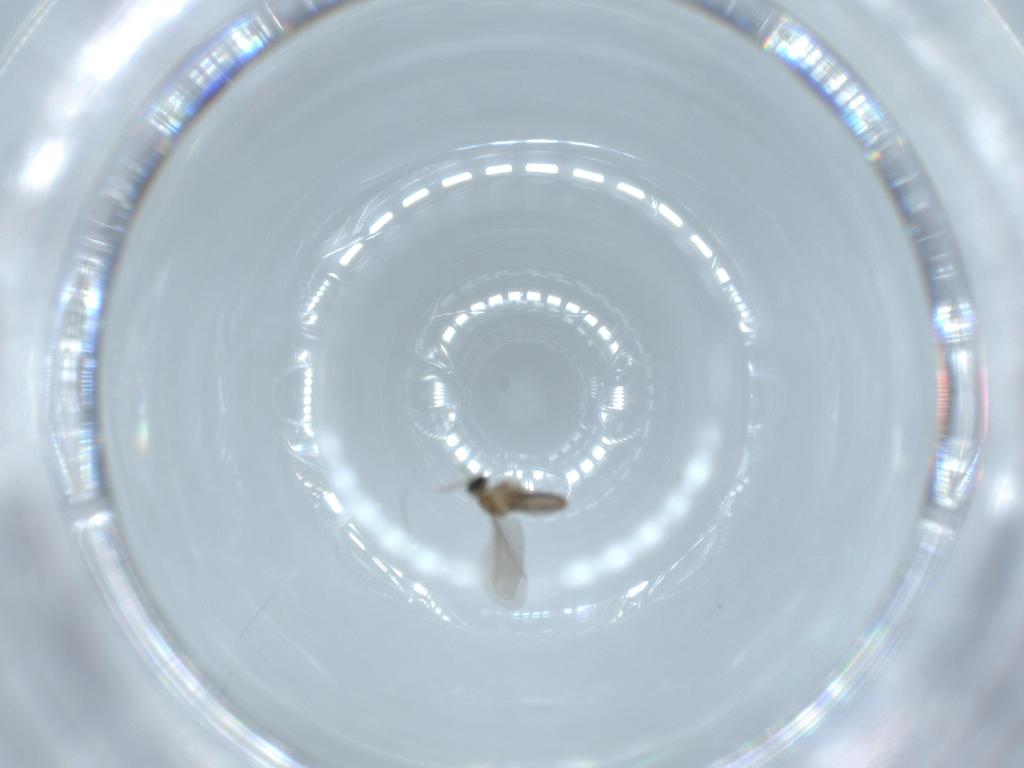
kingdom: Animalia
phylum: Arthropoda
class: Insecta
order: Diptera
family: Cecidomyiidae
